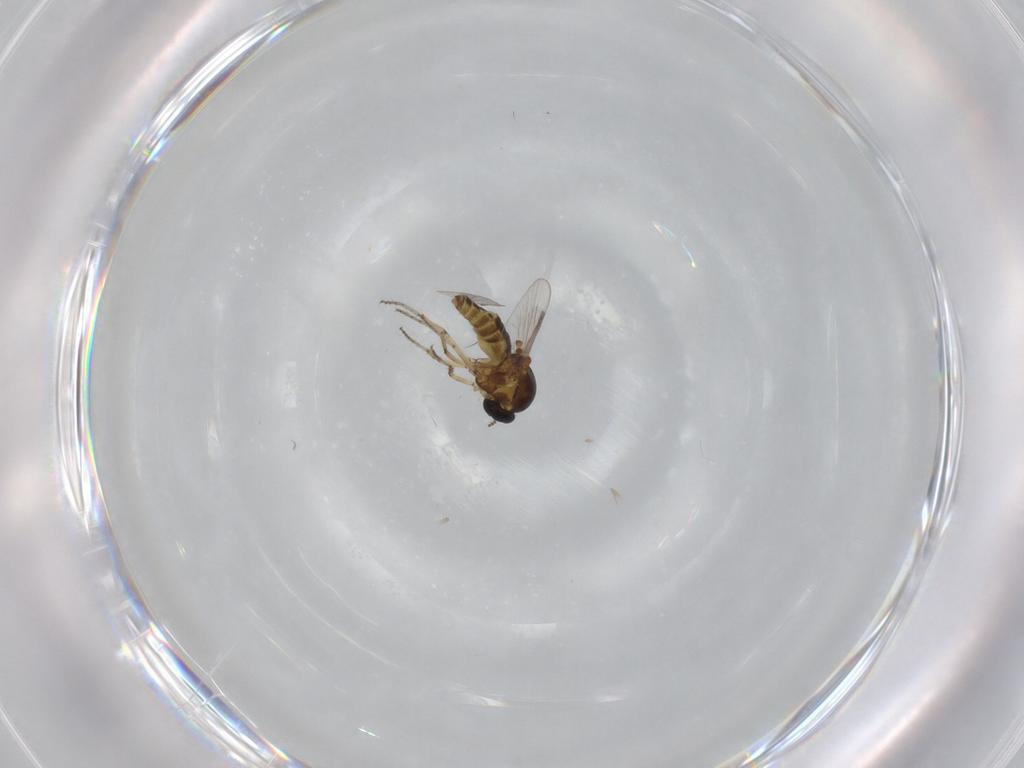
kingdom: Animalia
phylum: Arthropoda
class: Insecta
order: Diptera
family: Ceratopogonidae
